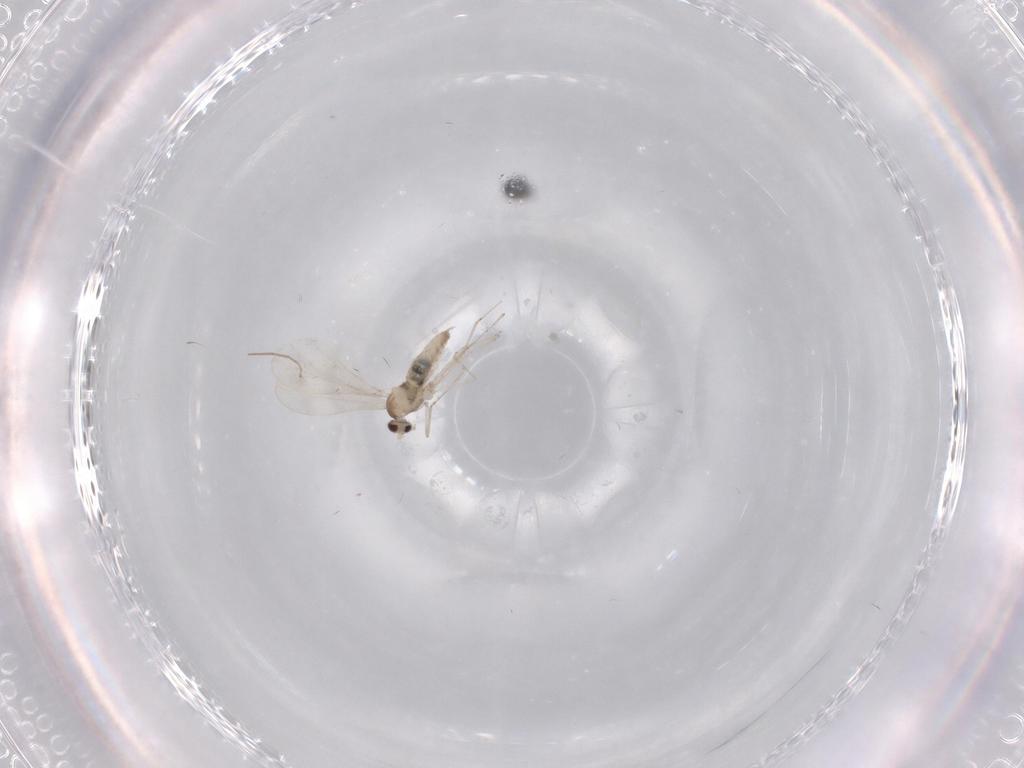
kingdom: Animalia
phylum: Arthropoda
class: Insecta
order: Diptera
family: Cecidomyiidae
